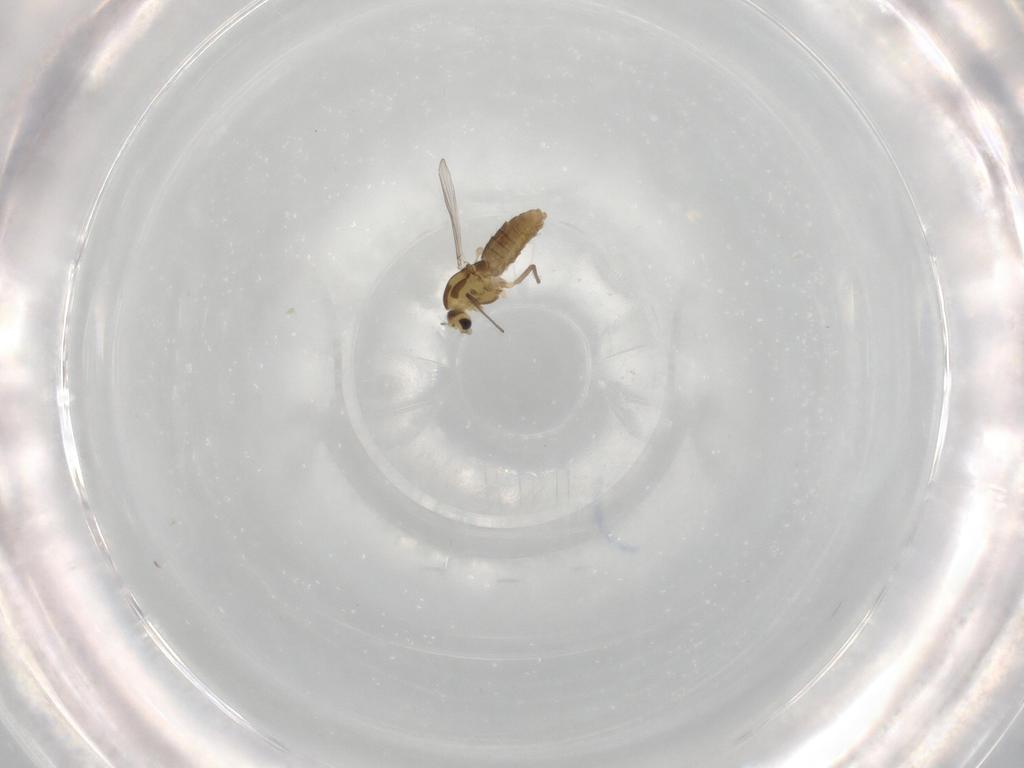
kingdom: Animalia
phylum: Arthropoda
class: Insecta
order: Diptera
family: Chironomidae
